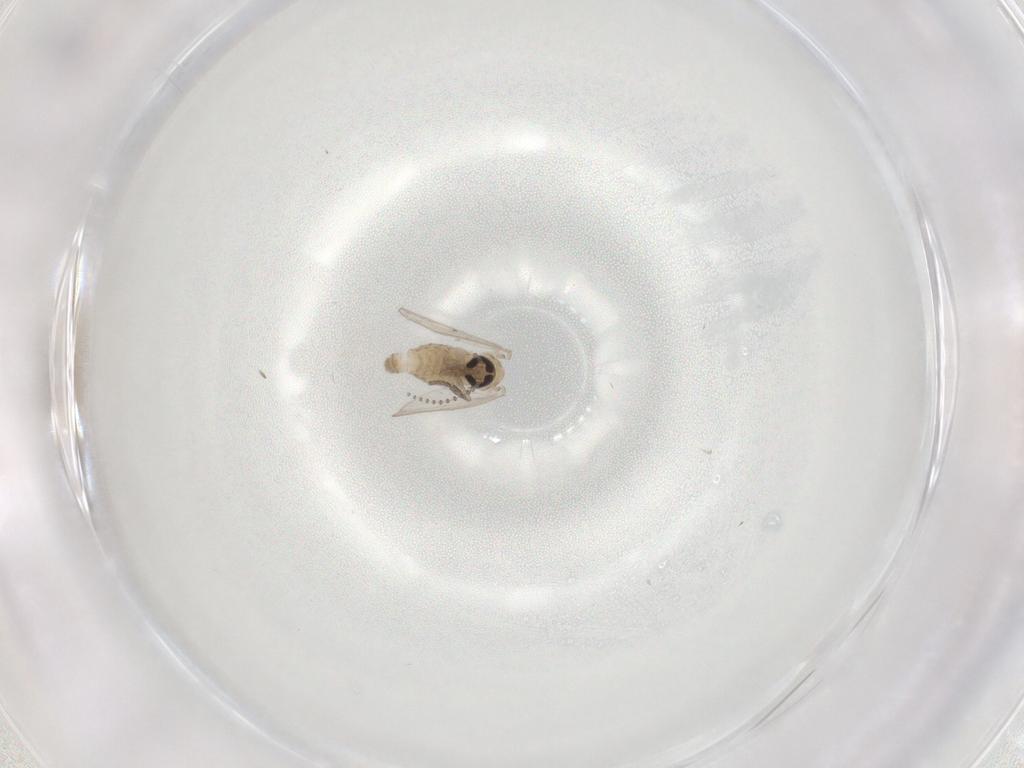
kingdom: Animalia
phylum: Arthropoda
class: Insecta
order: Diptera
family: Psychodidae
